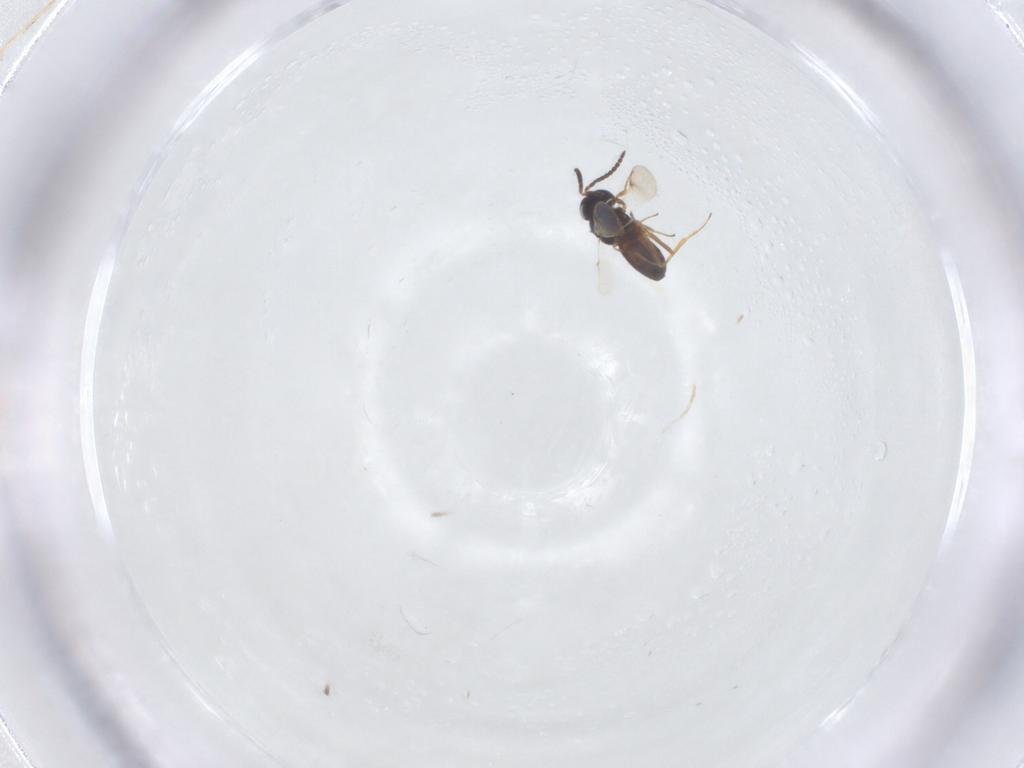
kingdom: Animalia
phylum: Arthropoda
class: Insecta
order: Hymenoptera
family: Scelionidae
